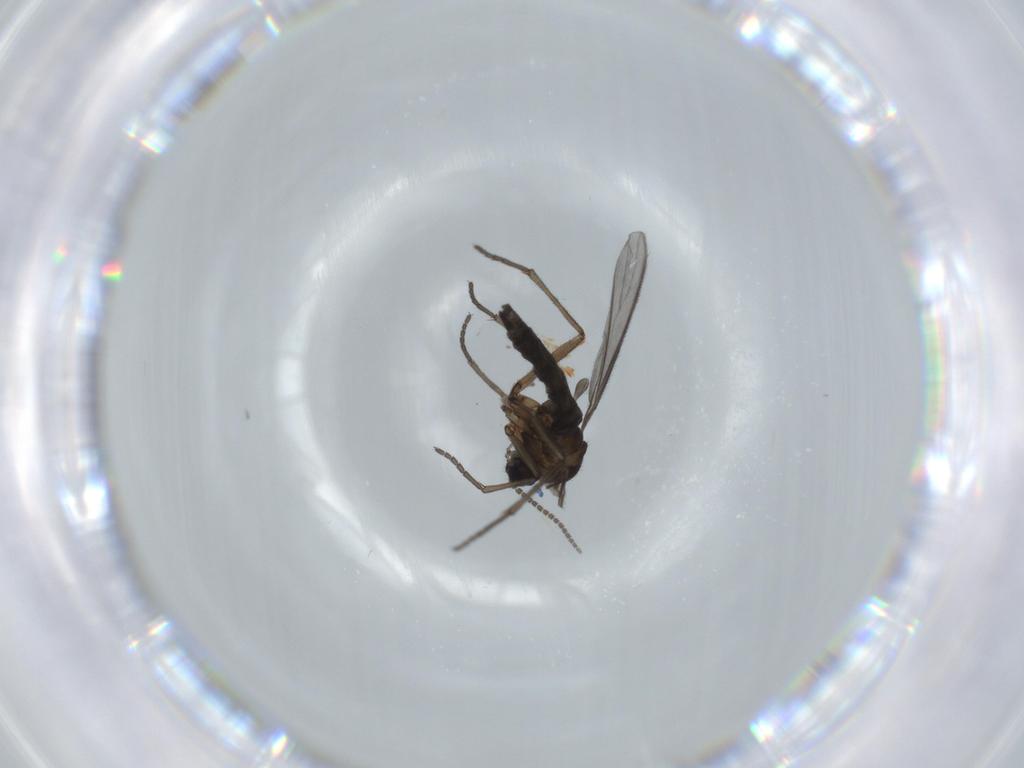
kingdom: Animalia
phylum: Arthropoda
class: Insecta
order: Diptera
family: Sciaridae
